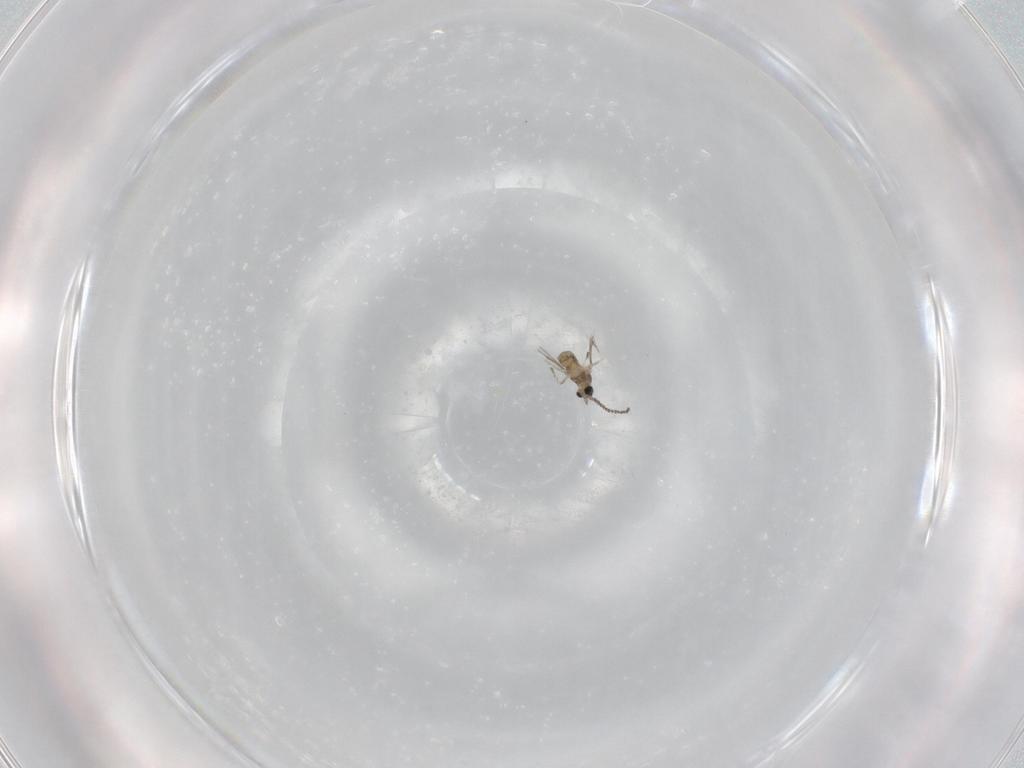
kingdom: Animalia
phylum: Arthropoda
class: Insecta
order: Diptera
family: Cecidomyiidae
